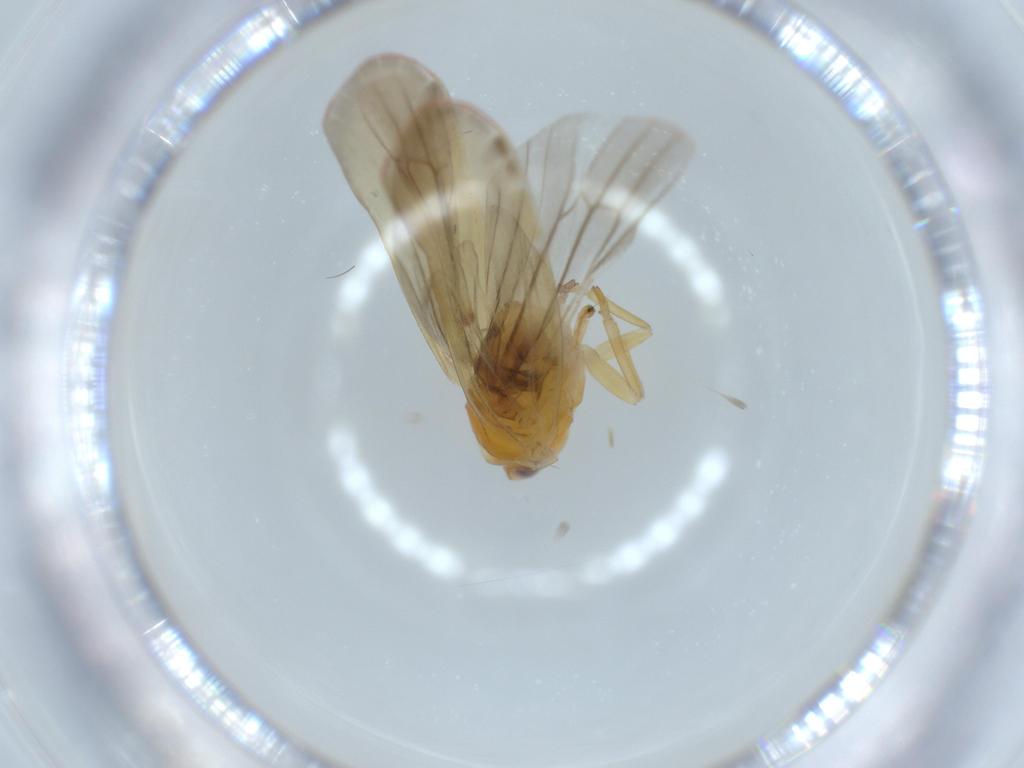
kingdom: Animalia
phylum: Arthropoda
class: Insecta
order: Hemiptera
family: Derbidae
